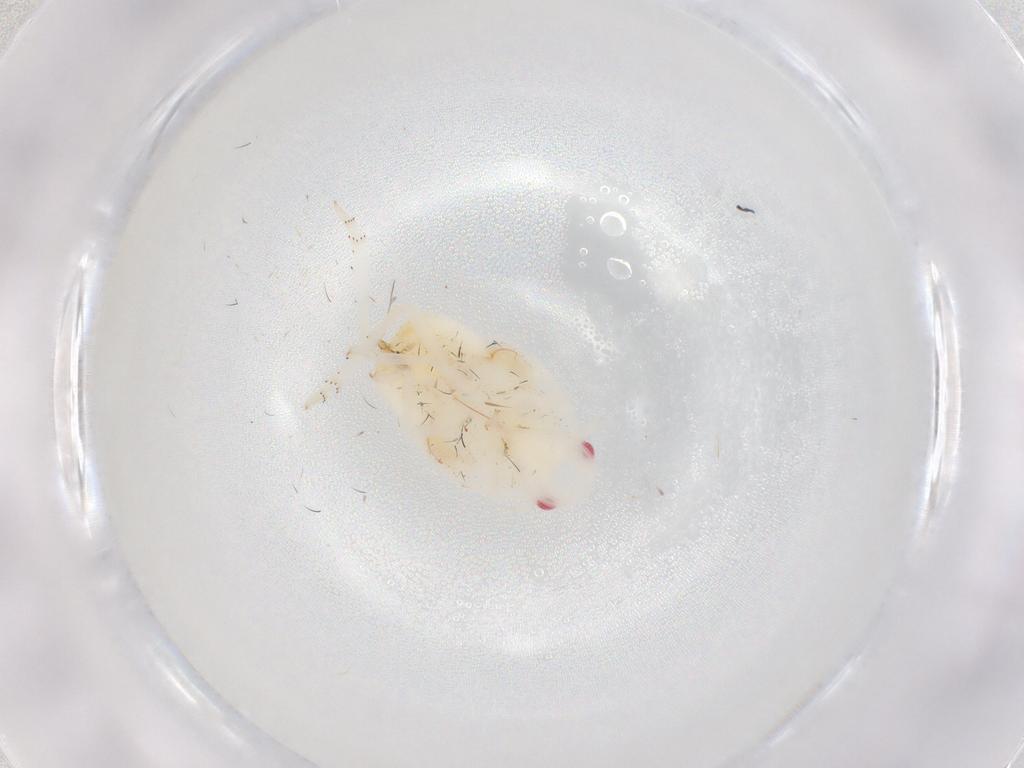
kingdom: Animalia
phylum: Arthropoda
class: Insecta
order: Hemiptera
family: Flatidae
